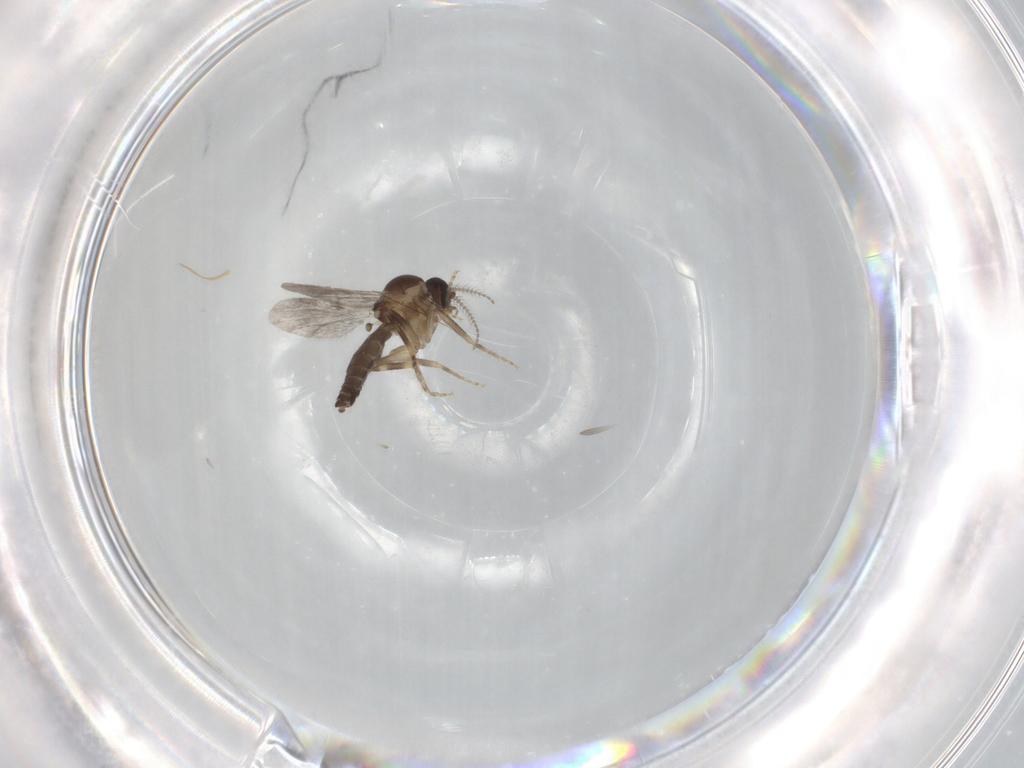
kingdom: Animalia
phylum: Arthropoda
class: Insecta
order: Diptera
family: Ceratopogonidae
